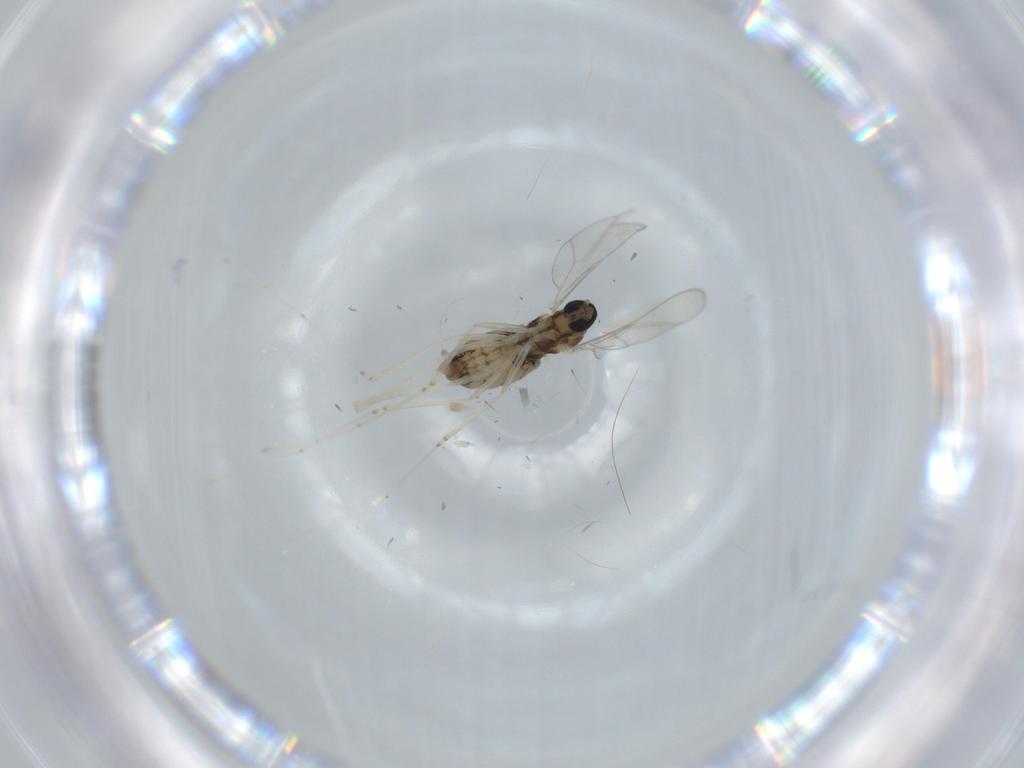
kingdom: Animalia
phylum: Arthropoda
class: Insecta
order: Diptera
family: Cecidomyiidae
